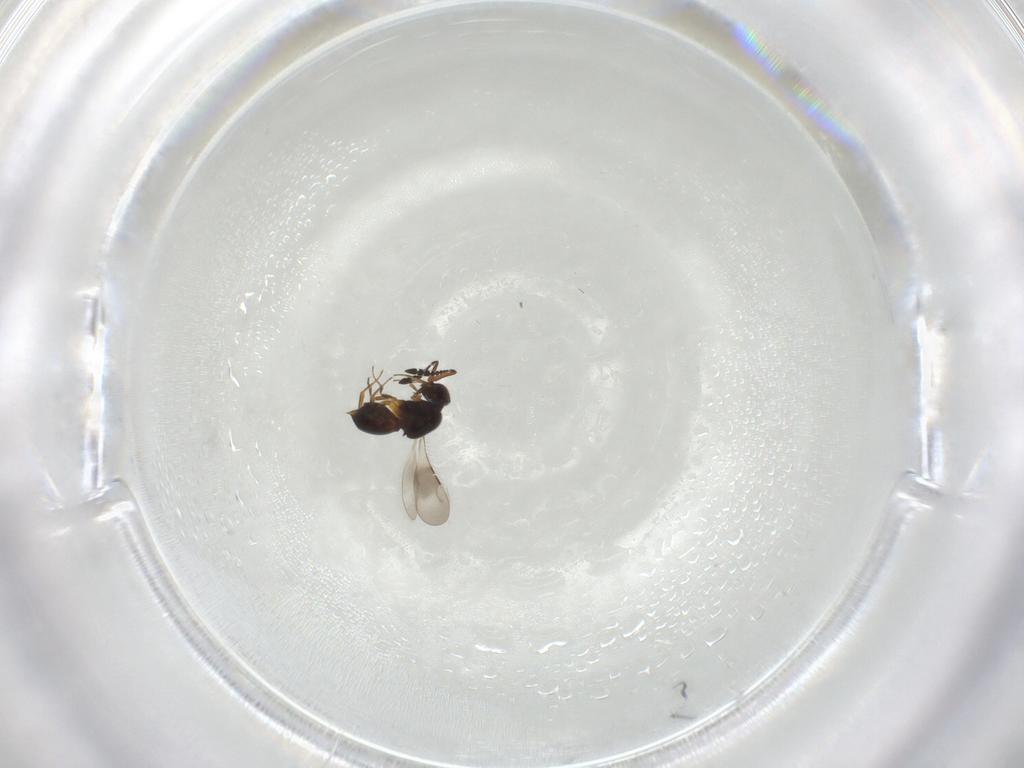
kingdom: Animalia
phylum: Arthropoda
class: Insecta
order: Hymenoptera
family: Ceraphronidae
